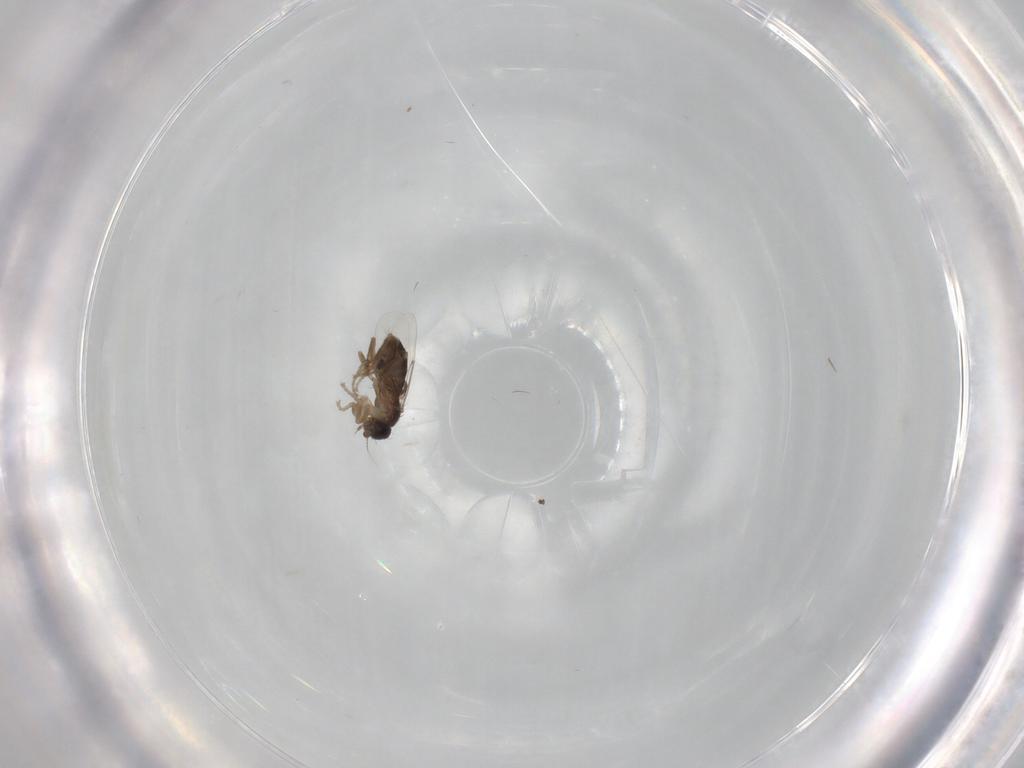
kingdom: Animalia
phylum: Arthropoda
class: Insecta
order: Diptera
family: Phoridae
